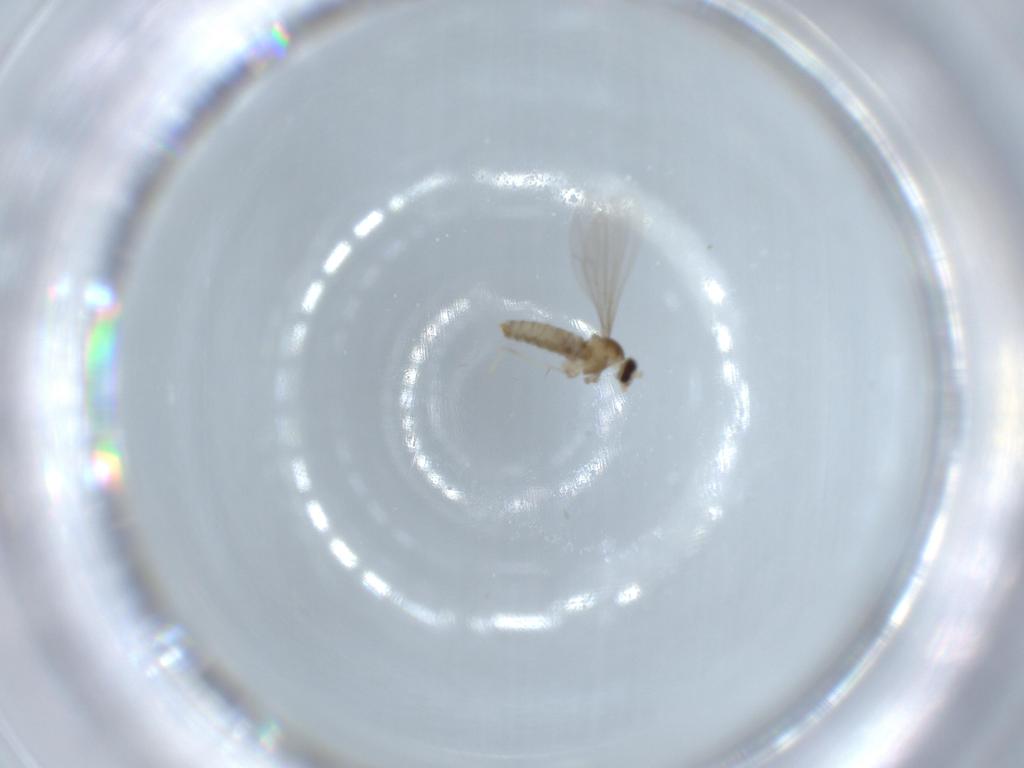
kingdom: Animalia
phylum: Arthropoda
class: Insecta
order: Diptera
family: Cecidomyiidae
